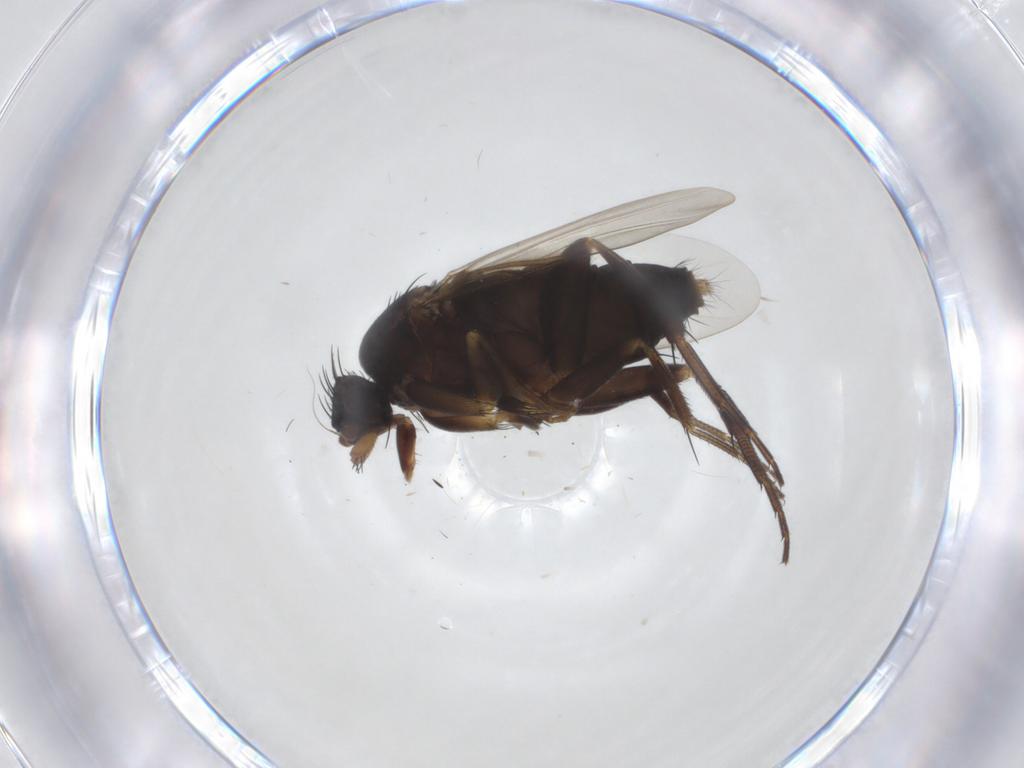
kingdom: Animalia
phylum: Arthropoda
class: Insecta
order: Diptera
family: Phoridae
